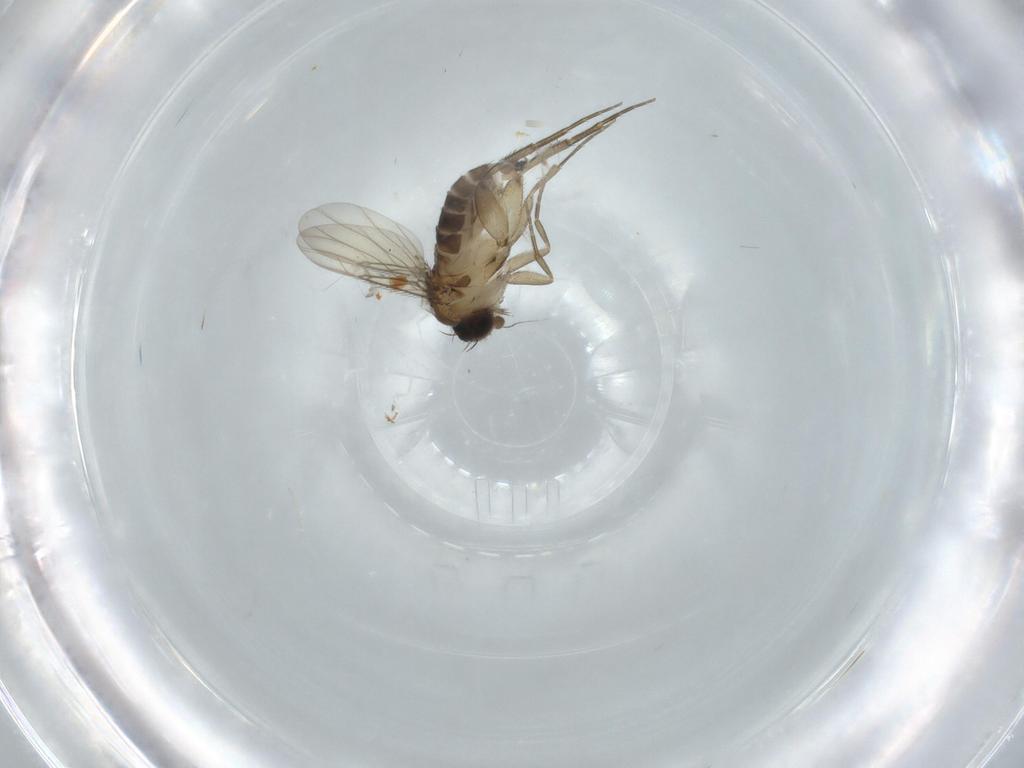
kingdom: Animalia
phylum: Arthropoda
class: Insecta
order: Diptera
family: Phoridae
